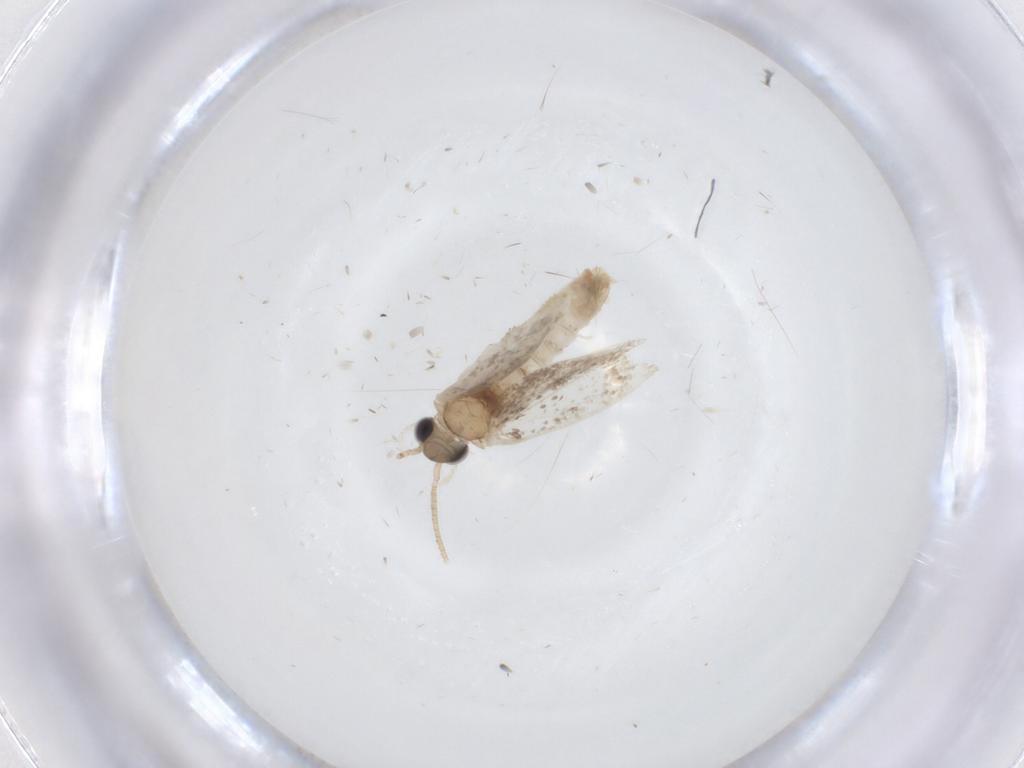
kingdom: Animalia
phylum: Arthropoda
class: Insecta
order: Lepidoptera
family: Dryadaulidae
